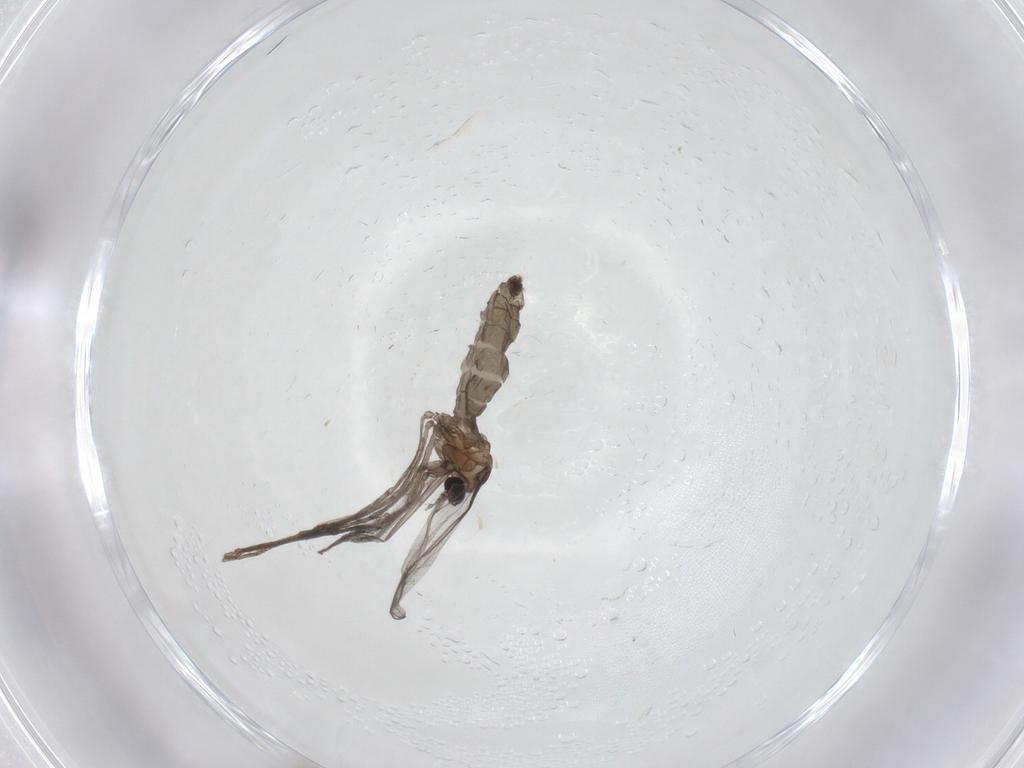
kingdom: Animalia
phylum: Arthropoda
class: Insecta
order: Diptera
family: Cecidomyiidae
